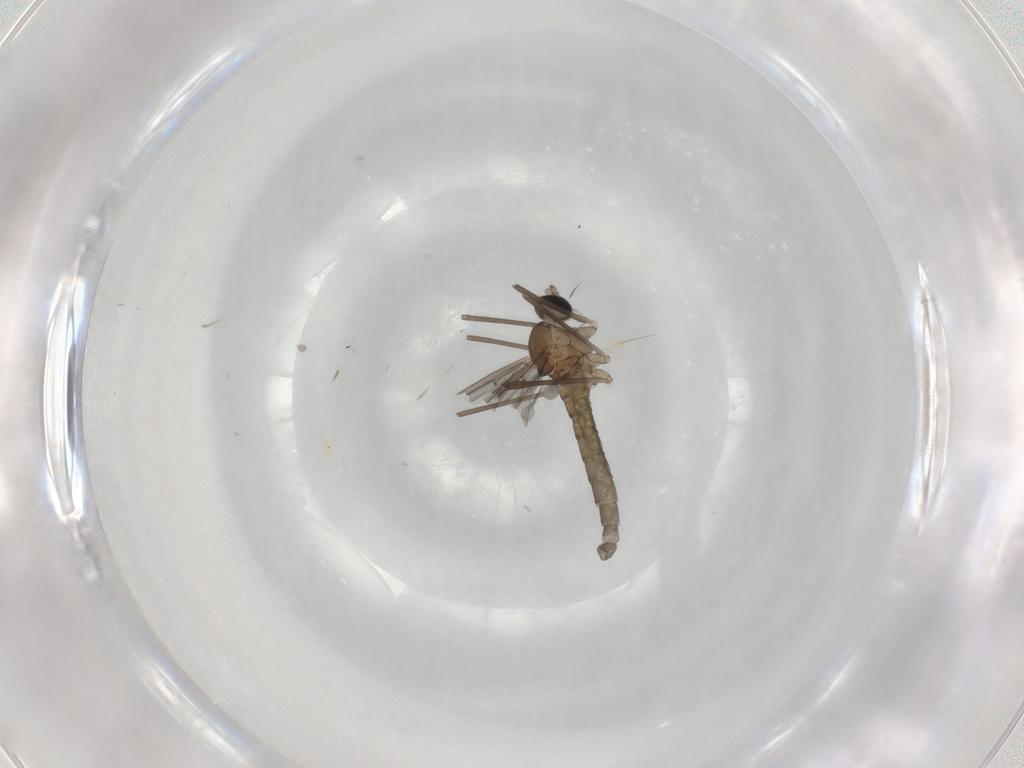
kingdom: Animalia
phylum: Arthropoda
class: Insecta
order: Diptera
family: Cecidomyiidae
